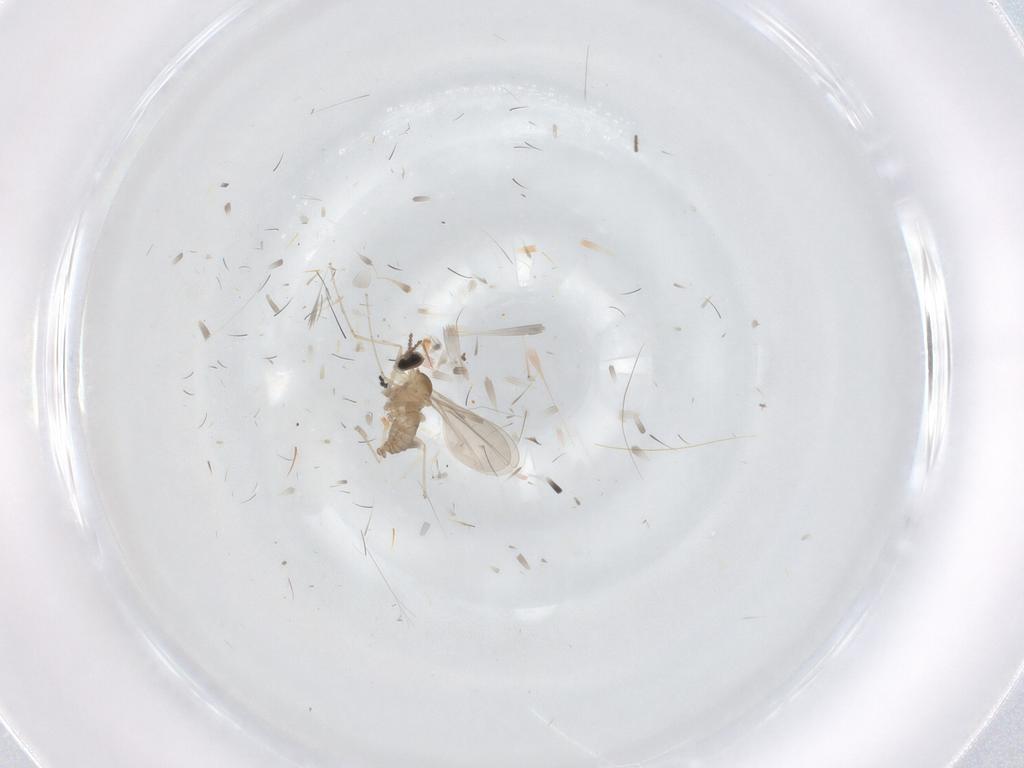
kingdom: Animalia
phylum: Arthropoda
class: Insecta
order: Diptera
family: Cecidomyiidae
